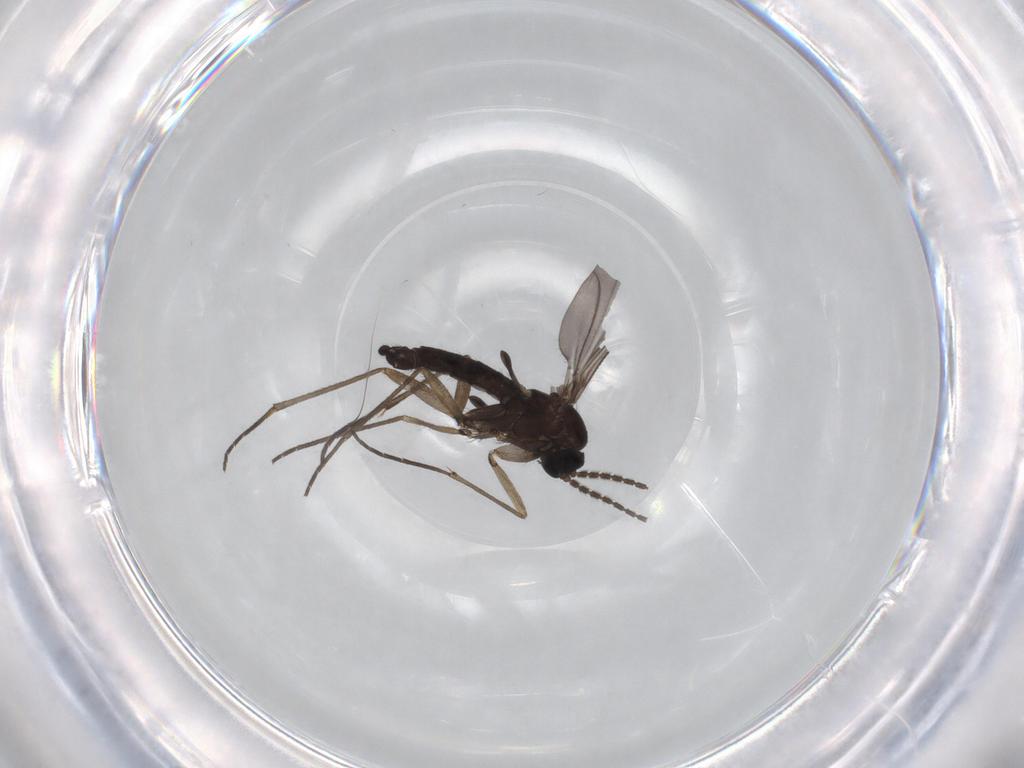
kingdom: Animalia
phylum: Arthropoda
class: Insecta
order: Diptera
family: Sciaridae
